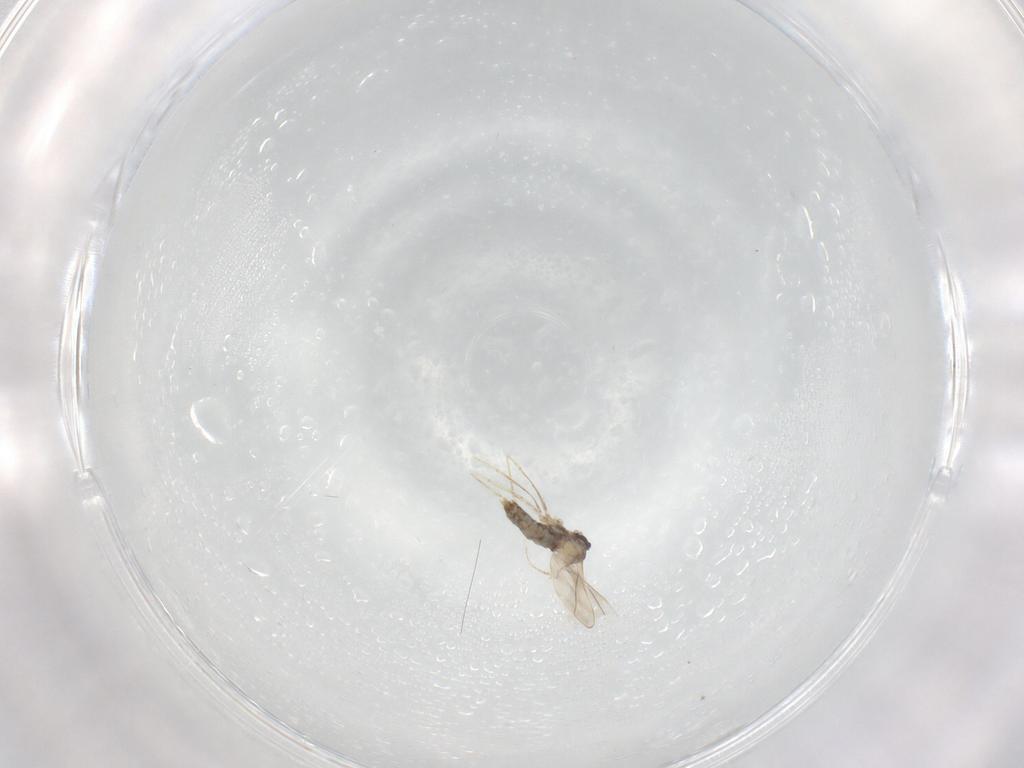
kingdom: Animalia
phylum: Arthropoda
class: Insecta
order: Diptera
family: Cecidomyiidae
